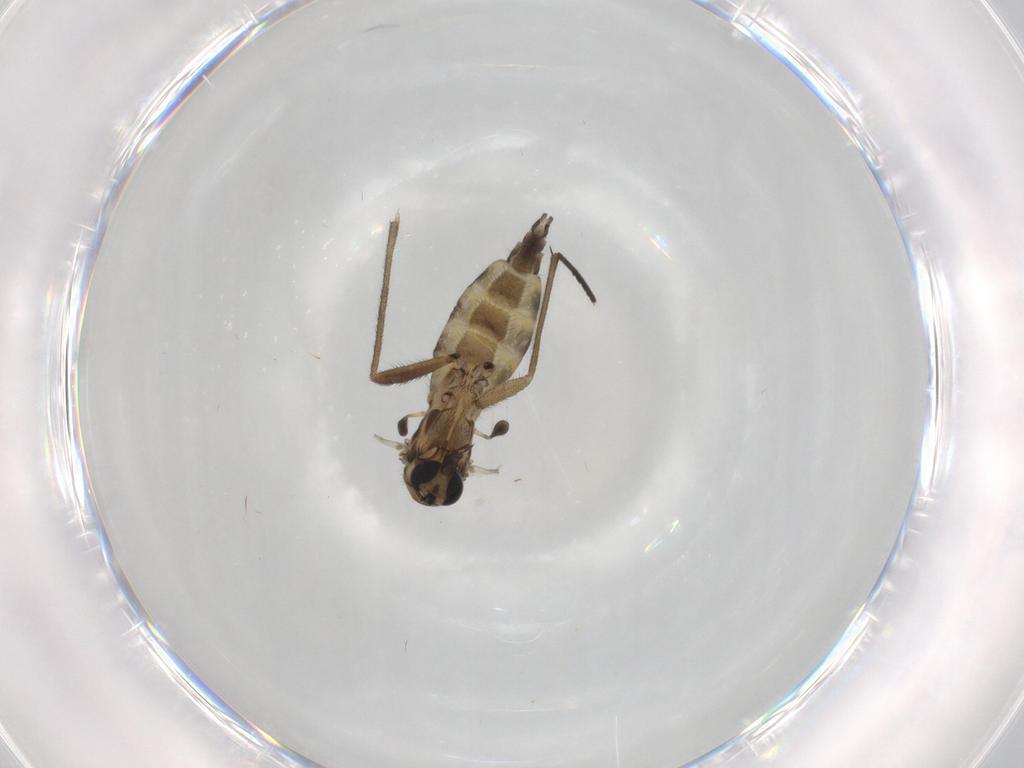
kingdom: Animalia
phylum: Arthropoda
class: Insecta
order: Diptera
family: Sciaridae
